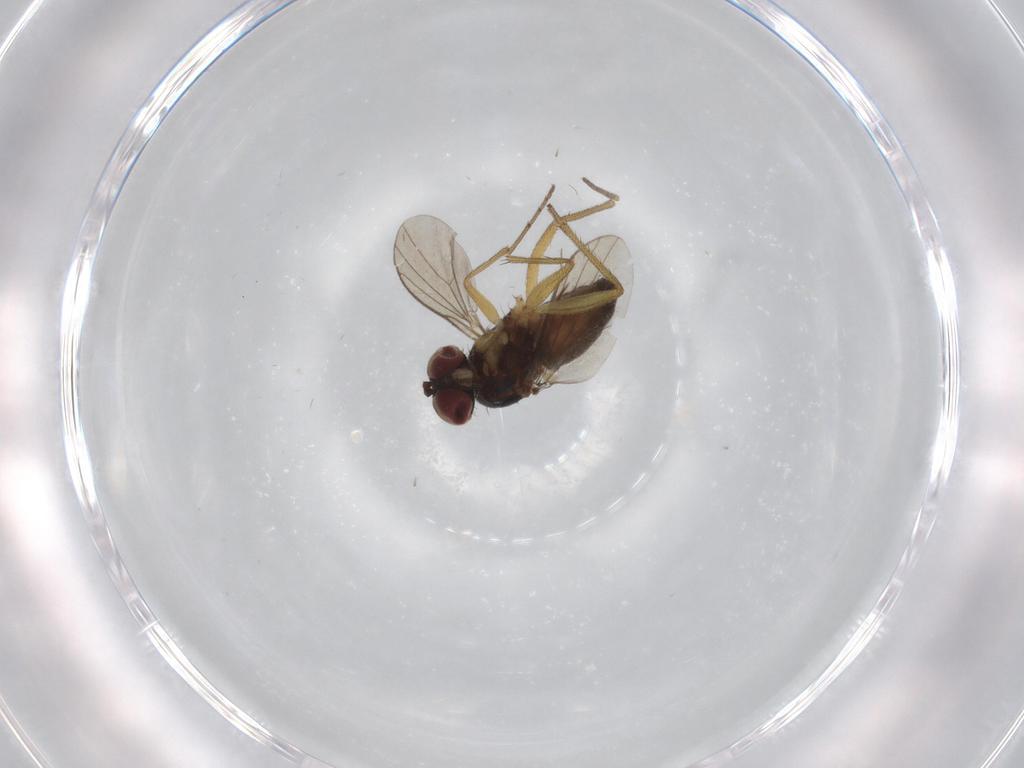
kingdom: Animalia
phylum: Arthropoda
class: Insecta
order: Diptera
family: Dolichopodidae
